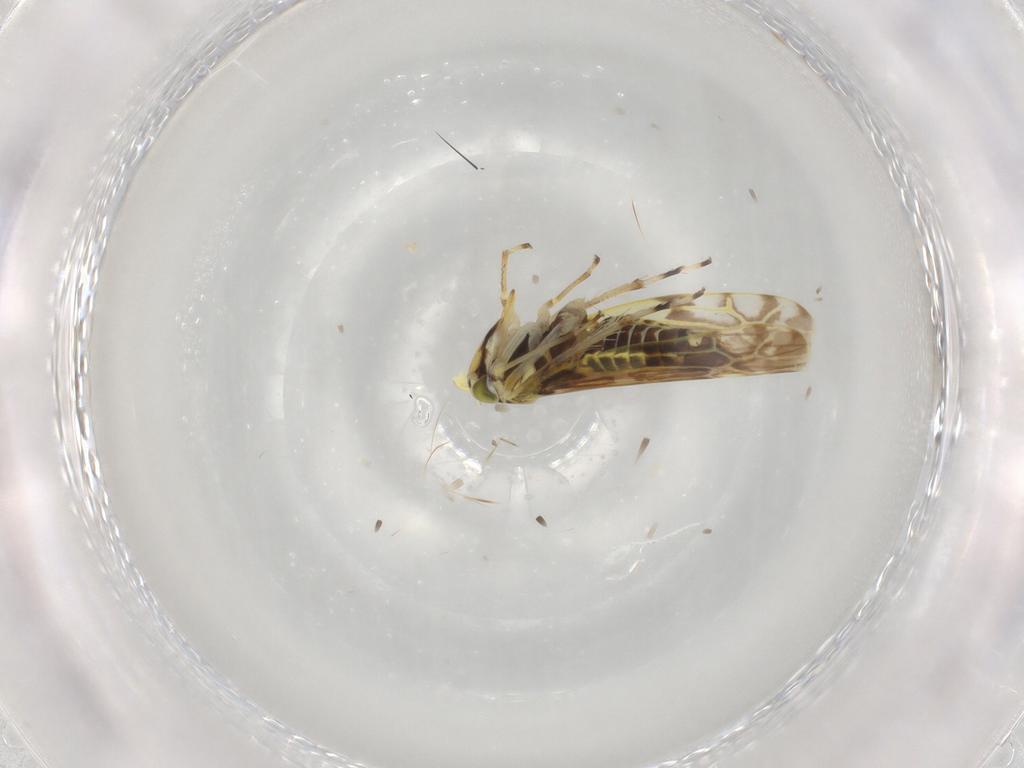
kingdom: Animalia
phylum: Arthropoda
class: Insecta
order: Hemiptera
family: Cicadellidae
